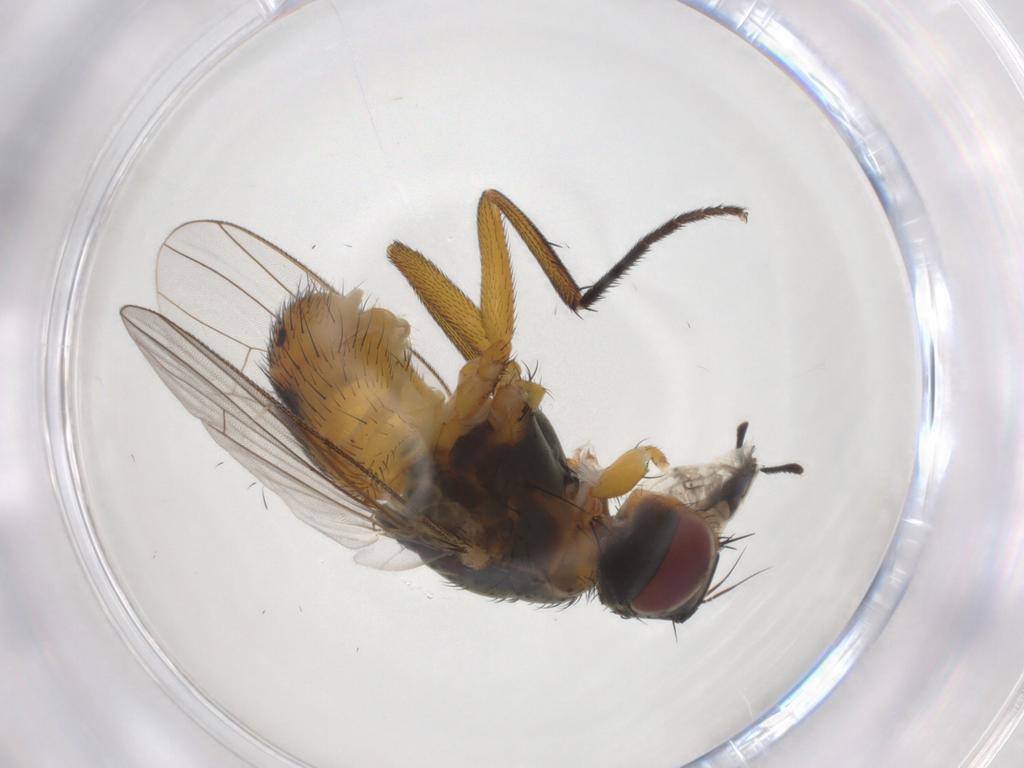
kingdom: Animalia
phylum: Arthropoda
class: Insecta
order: Diptera
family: Muscidae
